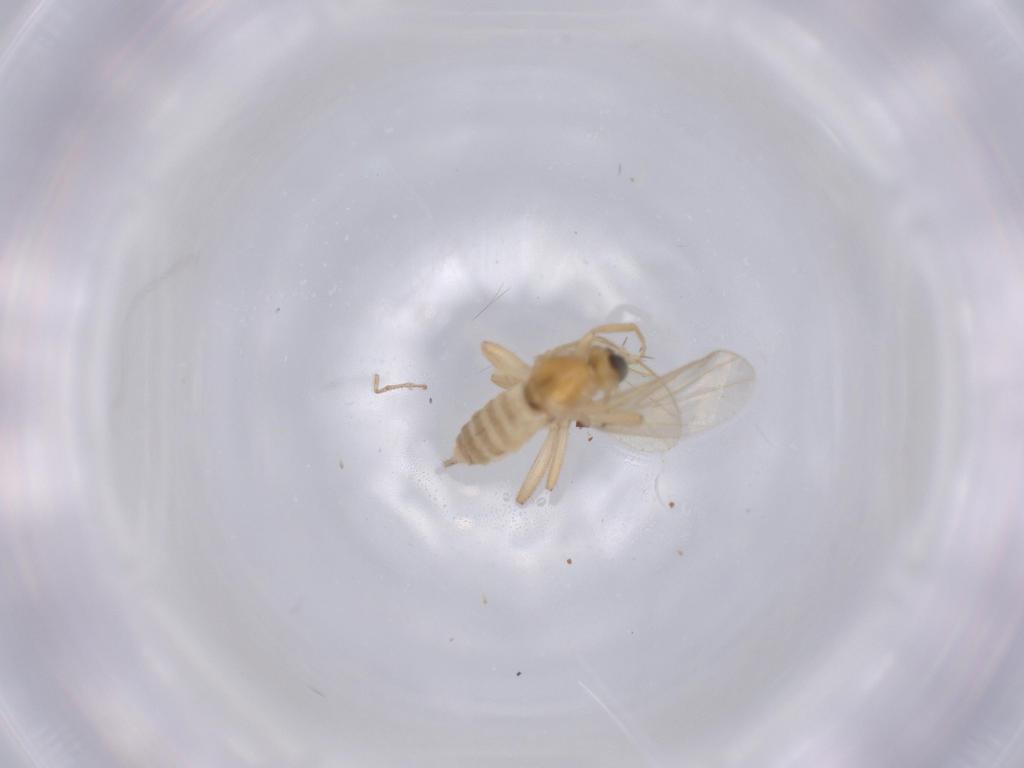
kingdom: Animalia
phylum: Arthropoda
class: Insecta
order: Diptera
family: Hybotidae
